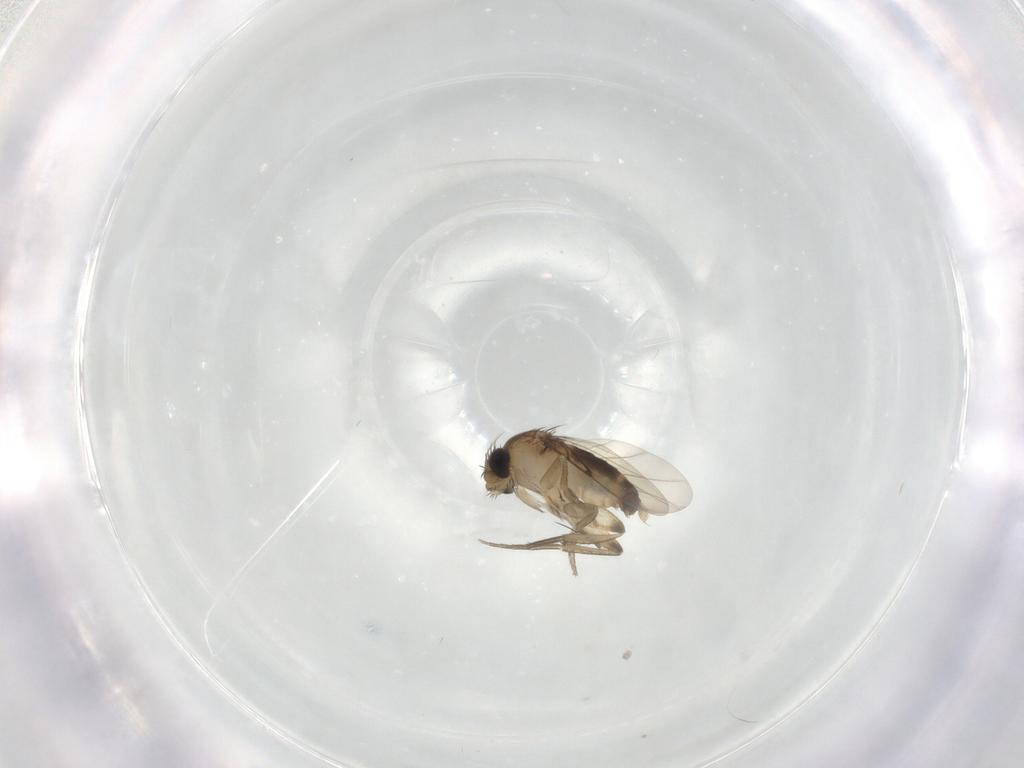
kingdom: Animalia
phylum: Arthropoda
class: Insecta
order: Diptera
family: Phoridae
